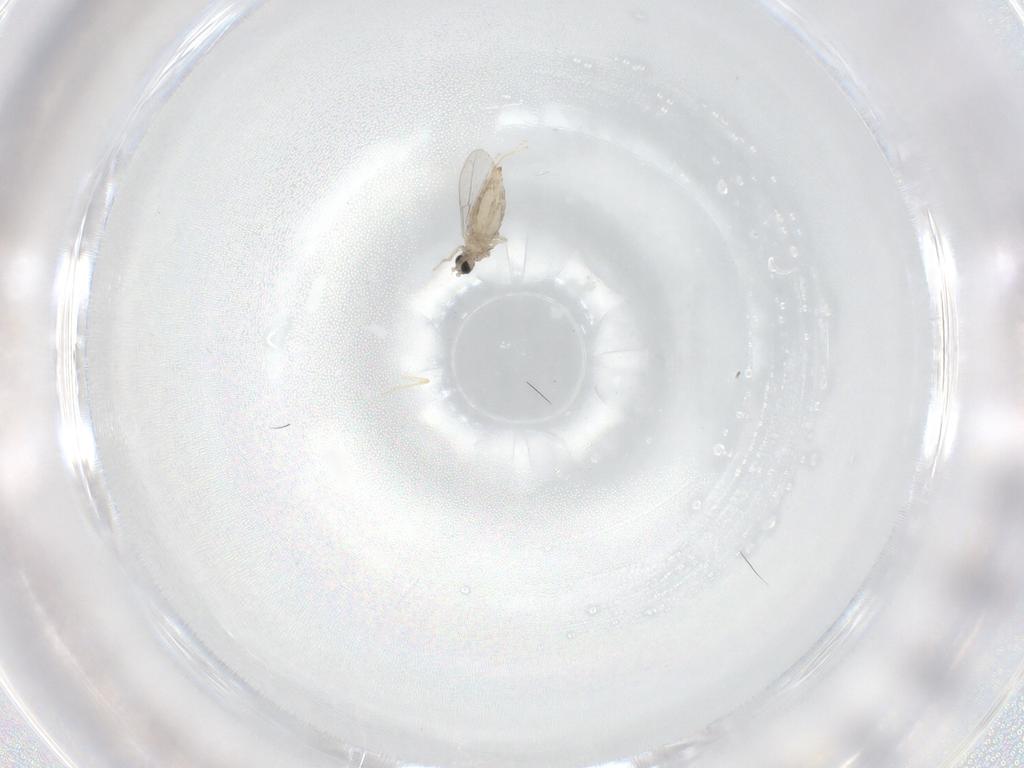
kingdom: Animalia
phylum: Arthropoda
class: Insecta
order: Diptera
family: Cecidomyiidae
